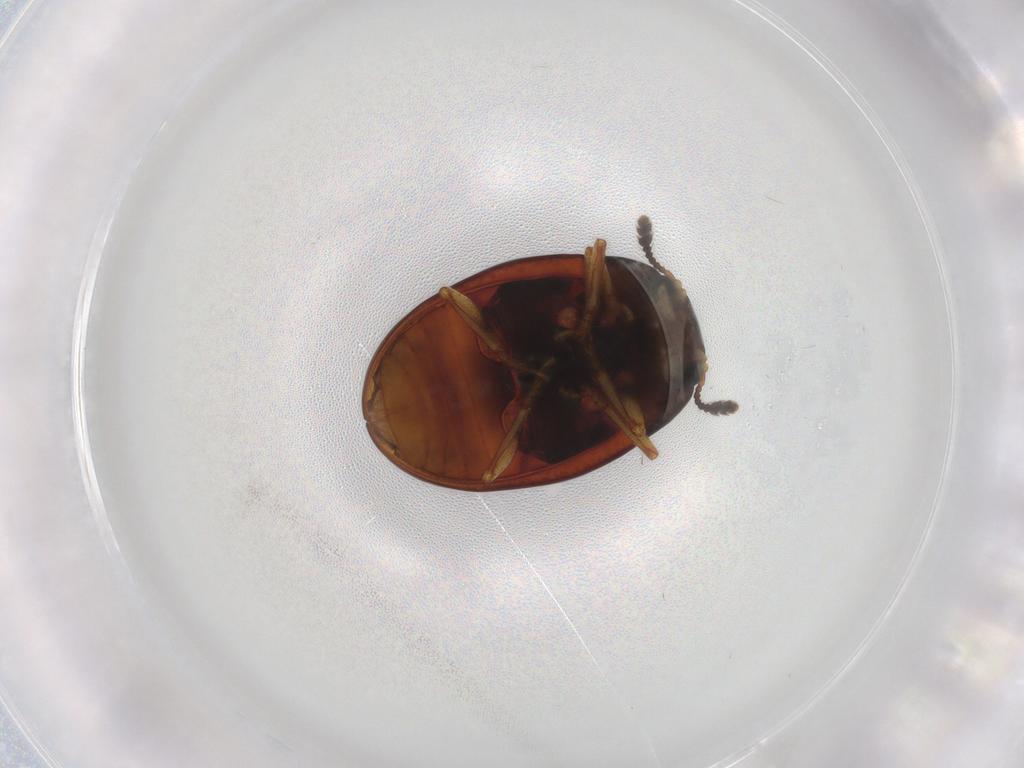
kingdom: Animalia
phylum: Arthropoda
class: Insecta
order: Coleoptera
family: Erotylidae
